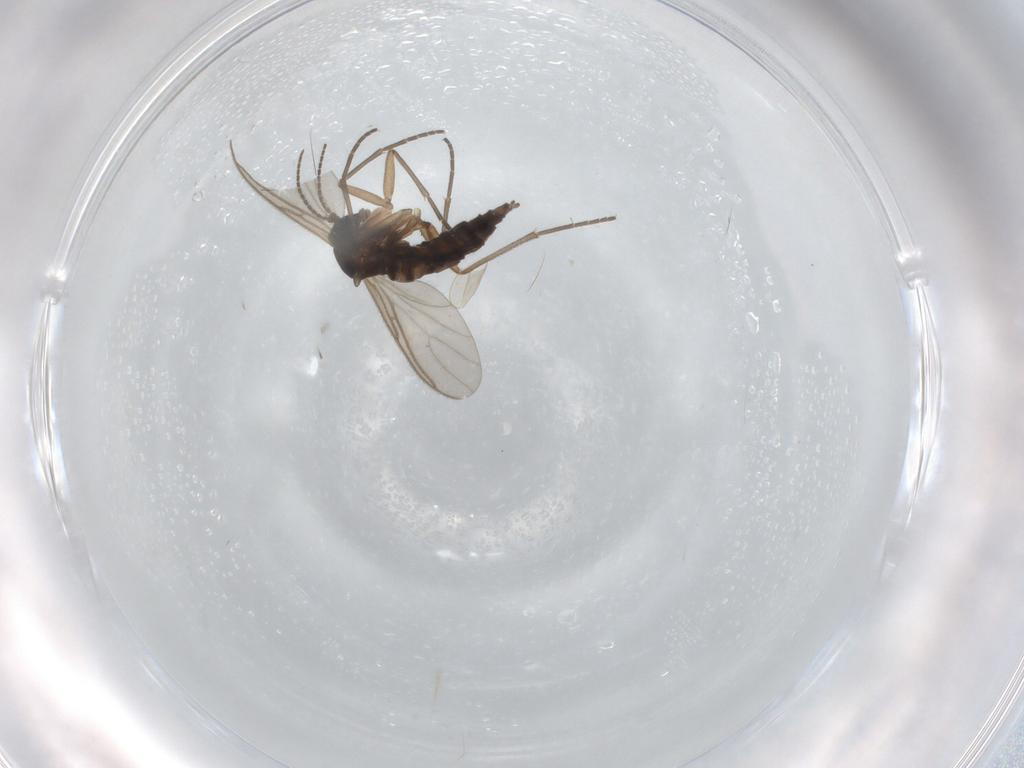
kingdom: Animalia
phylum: Arthropoda
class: Insecta
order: Diptera
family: Sciaridae
